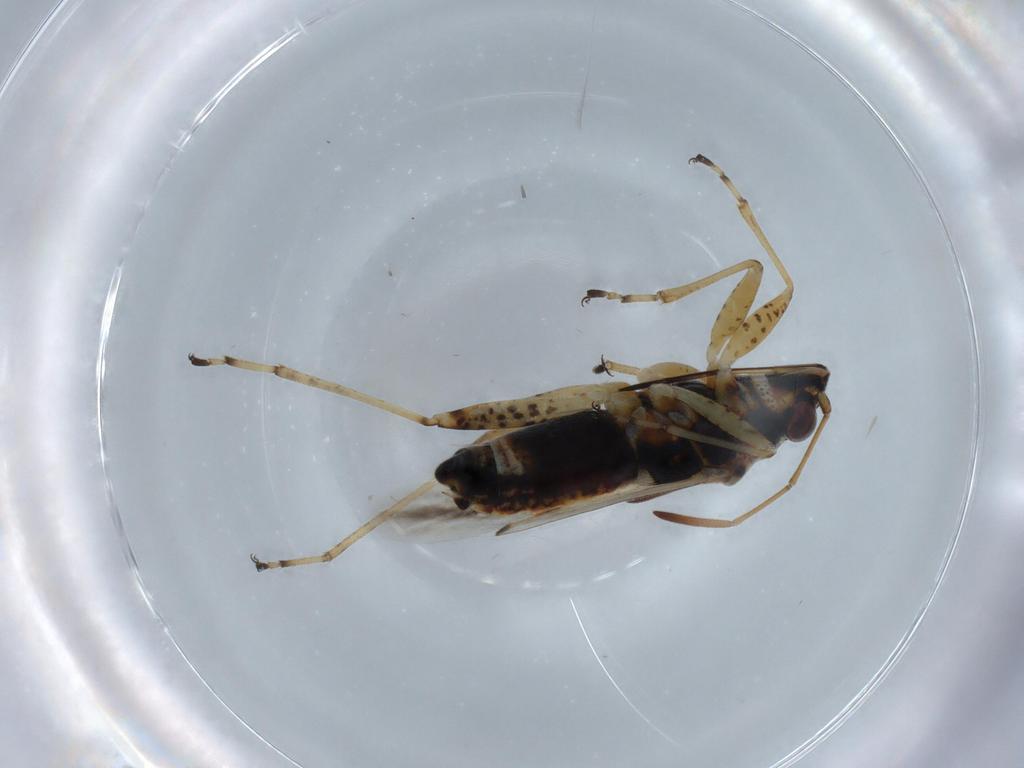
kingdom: Animalia
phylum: Arthropoda
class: Insecta
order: Hemiptera
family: Lygaeidae
